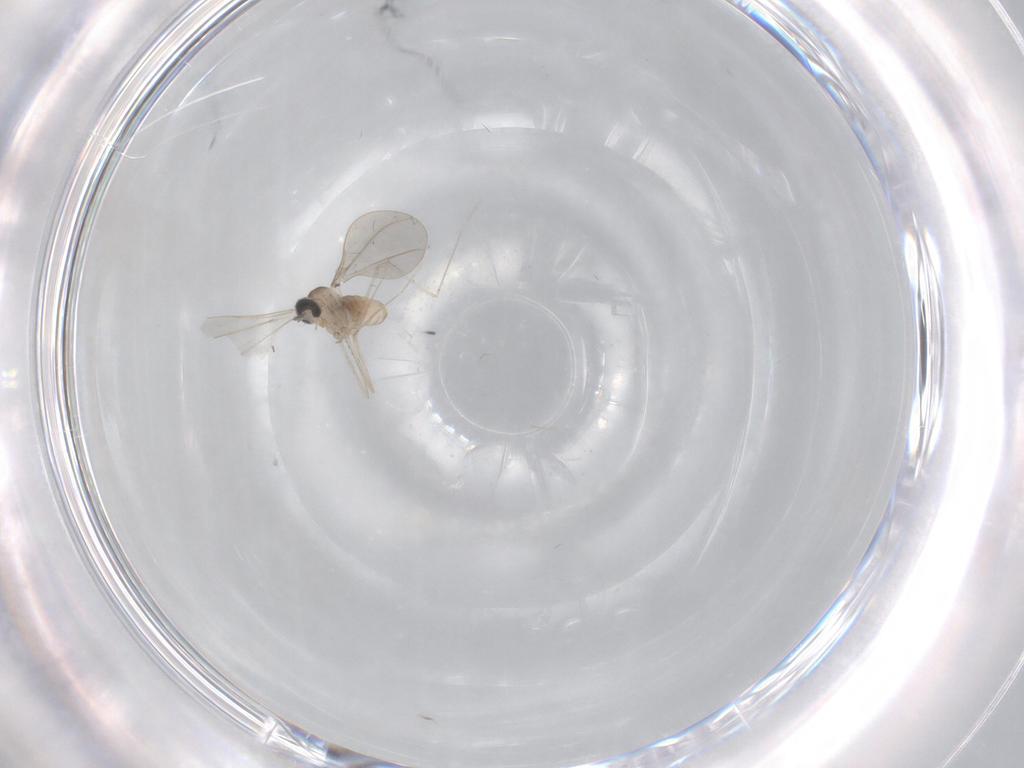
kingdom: Animalia
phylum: Arthropoda
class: Insecta
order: Diptera
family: Cecidomyiidae
